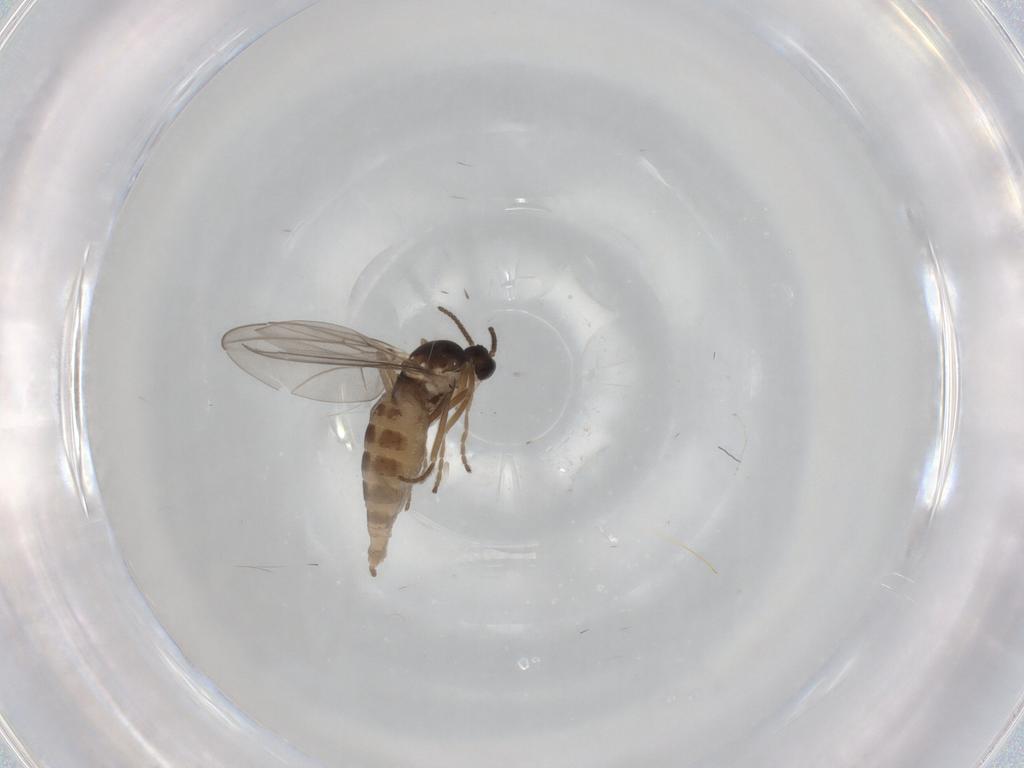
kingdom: Animalia
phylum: Arthropoda
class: Insecta
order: Diptera
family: Cecidomyiidae
